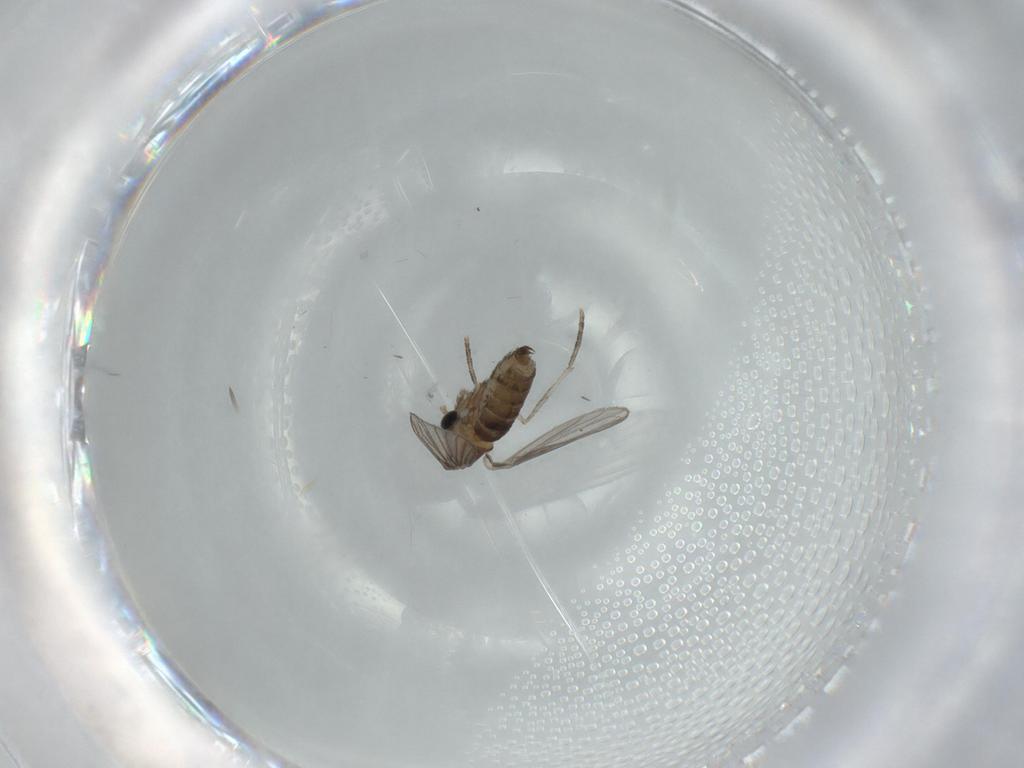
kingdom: Animalia
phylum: Arthropoda
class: Insecta
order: Diptera
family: Psychodidae
